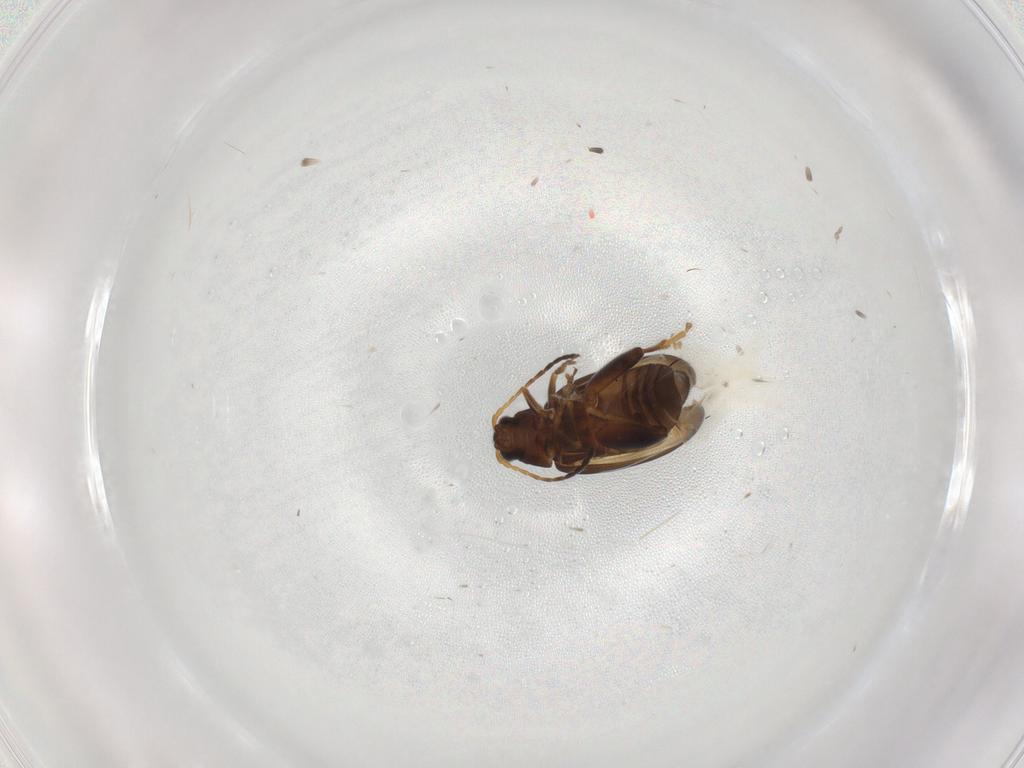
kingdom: Animalia
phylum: Arthropoda
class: Insecta
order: Coleoptera
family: Chrysomelidae
